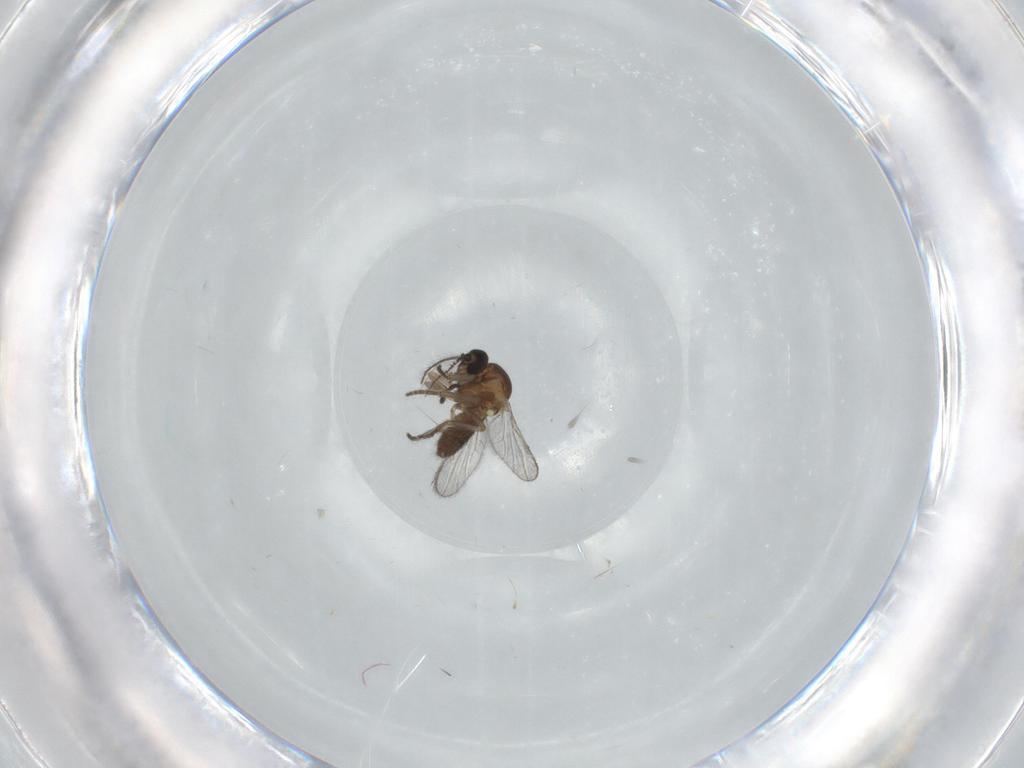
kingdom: Animalia
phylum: Arthropoda
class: Insecta
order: Diptera
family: Cecidomyiidae
